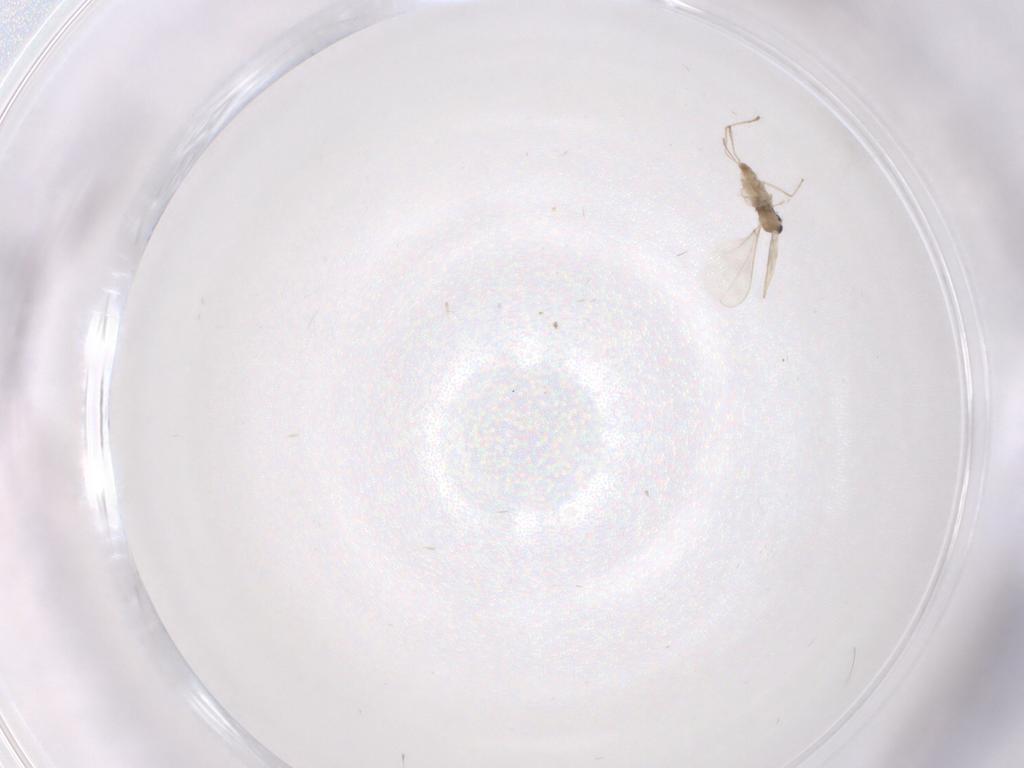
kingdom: Animalia
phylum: Arthropoda
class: Insecta
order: Diptera
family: Cecidomyiidae
